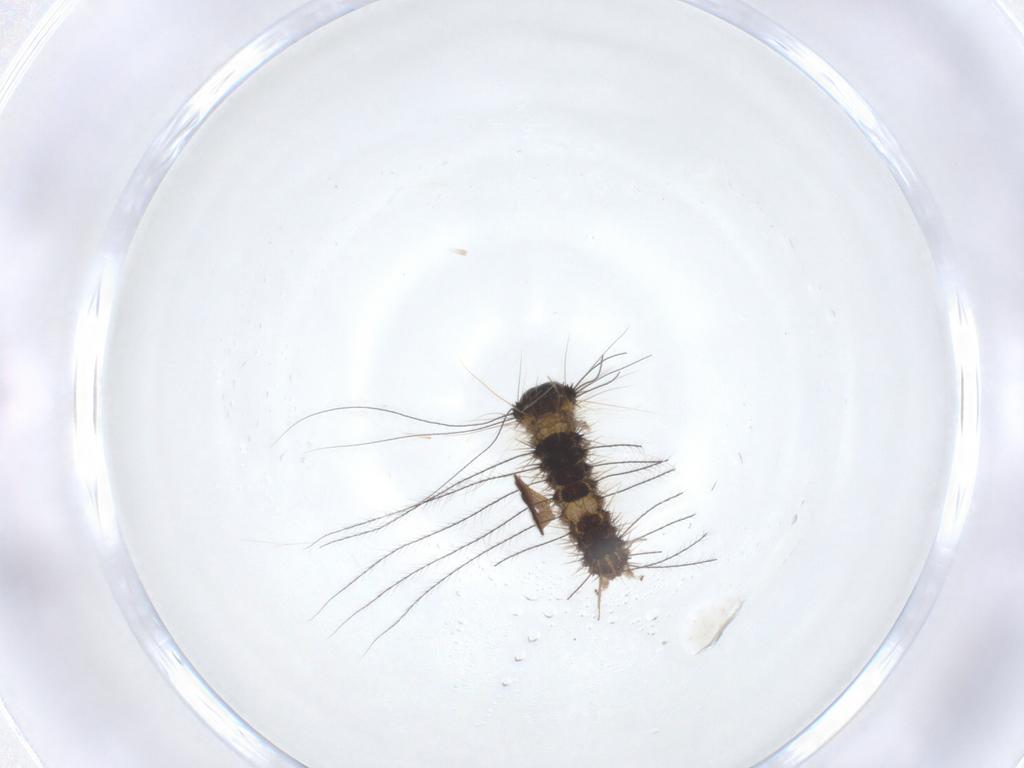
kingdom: Animalia
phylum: Arthropoda
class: Insecta
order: Lepidoptera
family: Erebidae
